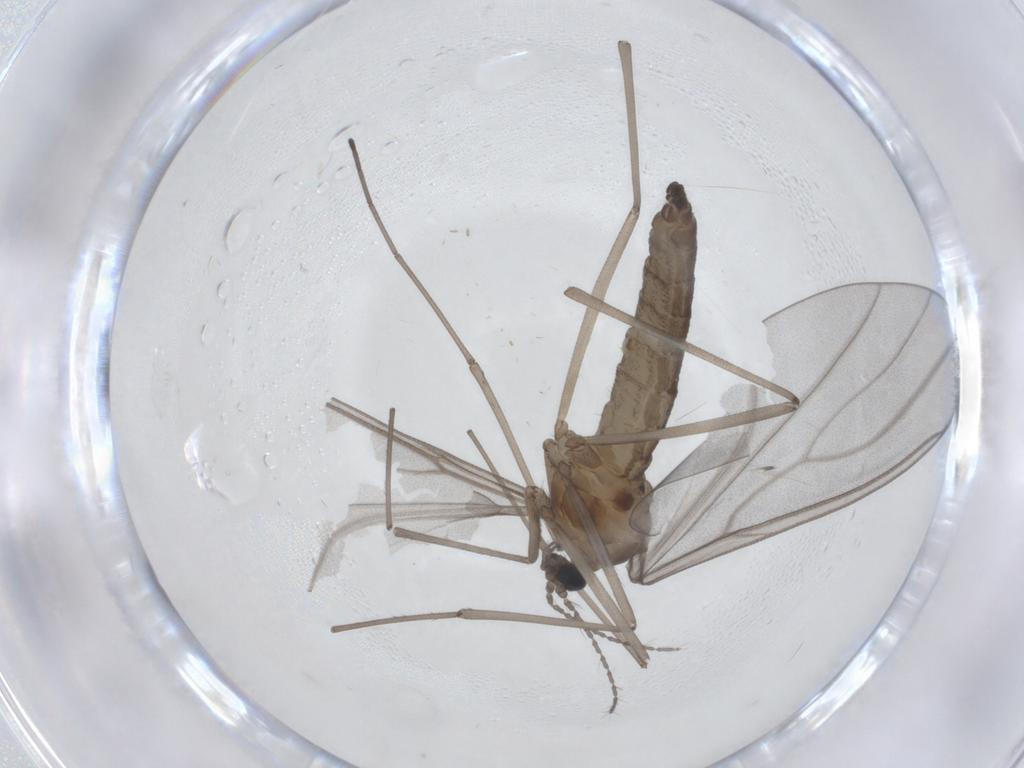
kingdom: Animalia
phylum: Arthropoda
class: Insecta
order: Diptera
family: Cecidomyiidae
